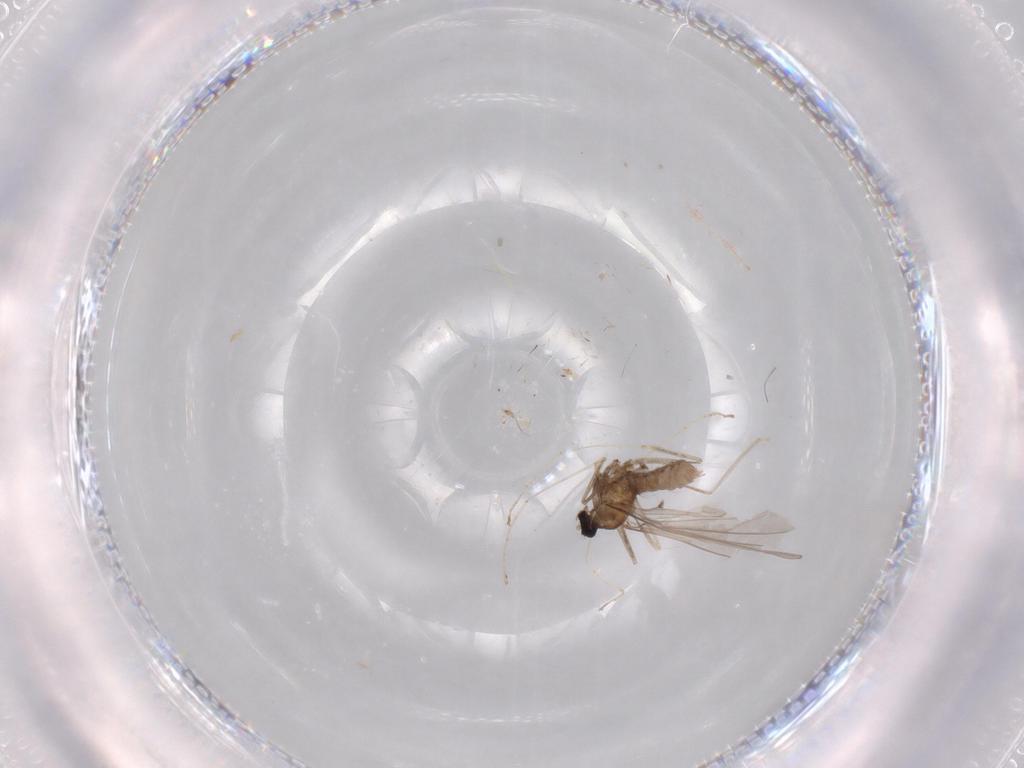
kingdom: Animalia
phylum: Arthropoda
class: Insecta
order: Diptera
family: Cecidomyiidae
